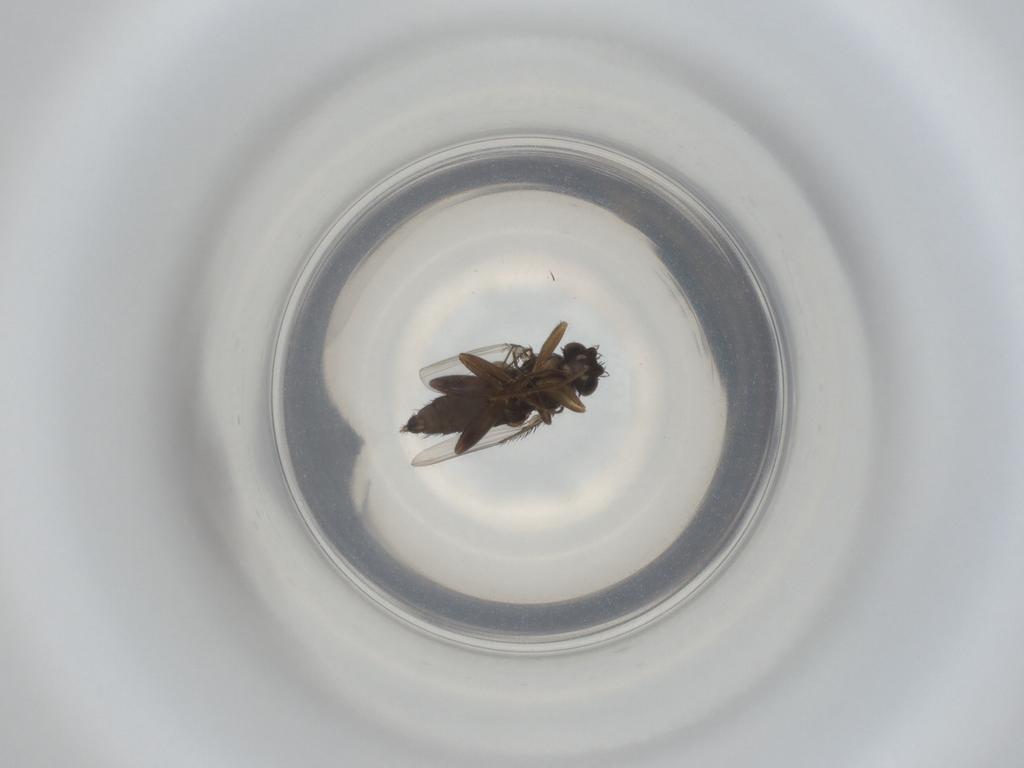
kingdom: Animalia
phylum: Arthropoda
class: Insecta
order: Diptera
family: Phoridae
